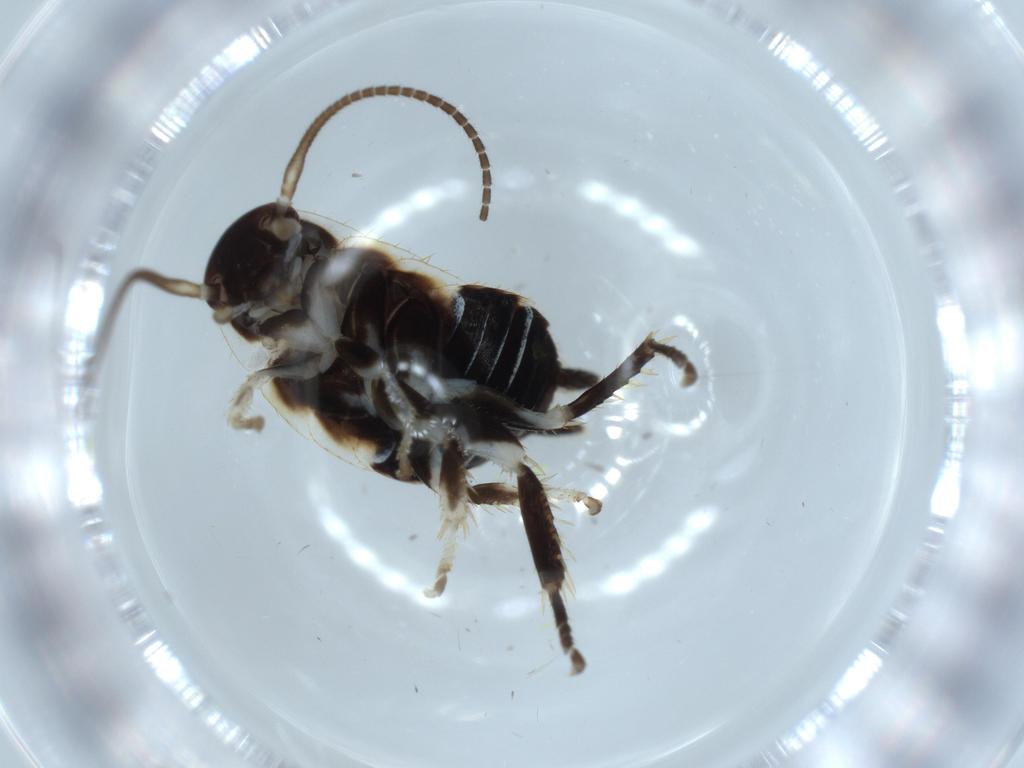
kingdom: Animalia
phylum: Arthropoda
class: Insecta
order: Blattodea
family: Ectobiidae
